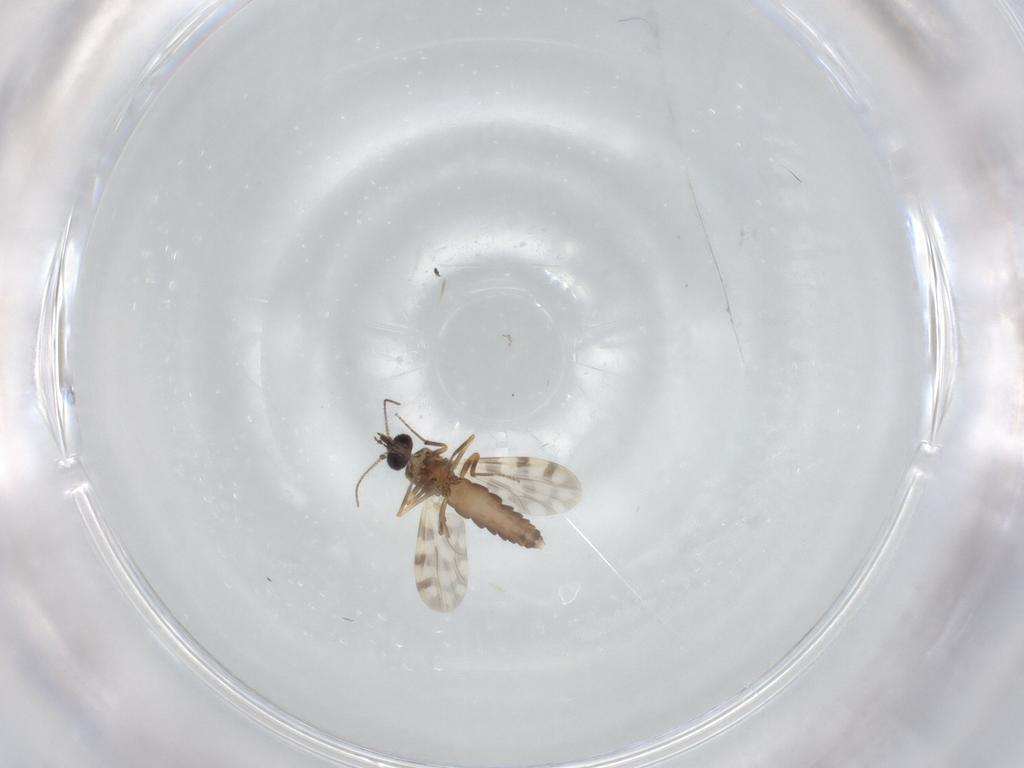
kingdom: Animalia
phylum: Arthropoda
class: Insecta
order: Diptera
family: Ceratopogonidae
